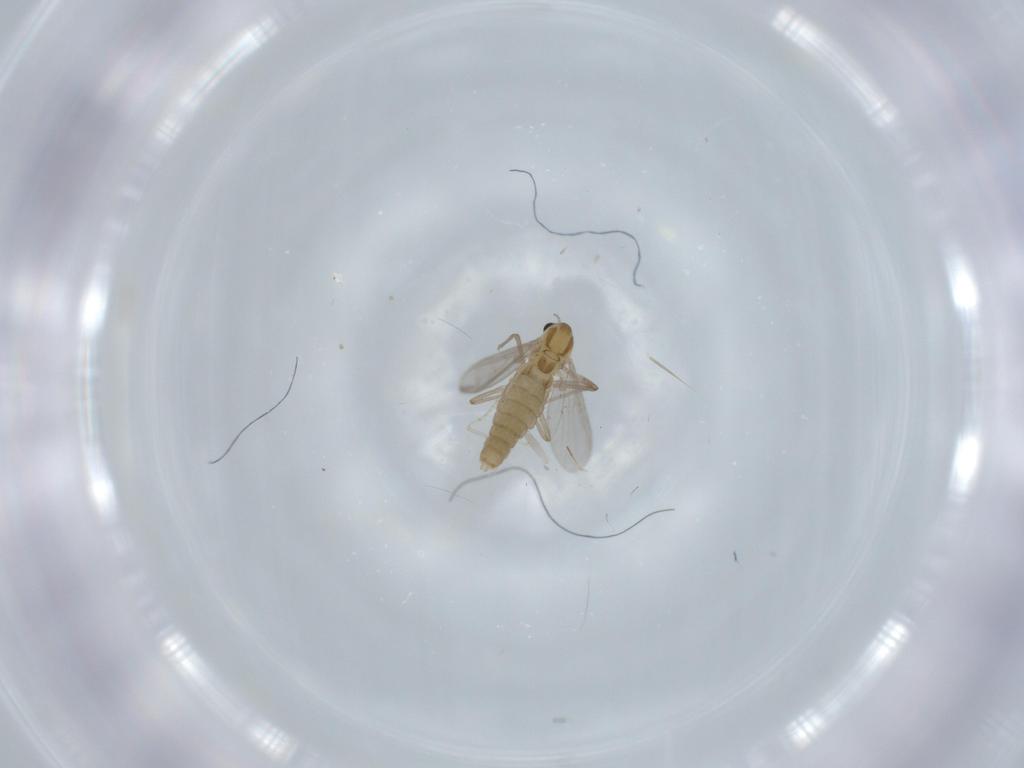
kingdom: Animalia
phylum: Arthropoda
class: Insecta
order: Diptera
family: Chironomidae
